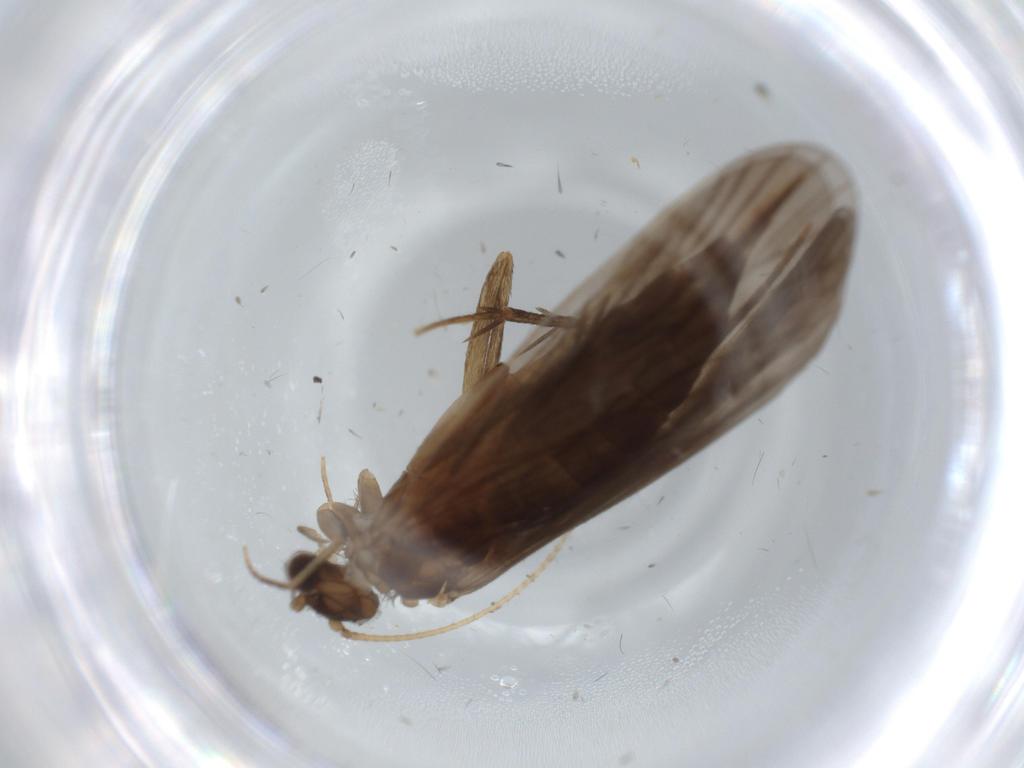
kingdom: Animalia
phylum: Arthropoda
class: Insecta
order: Trichoptera
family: Philopotamidae
